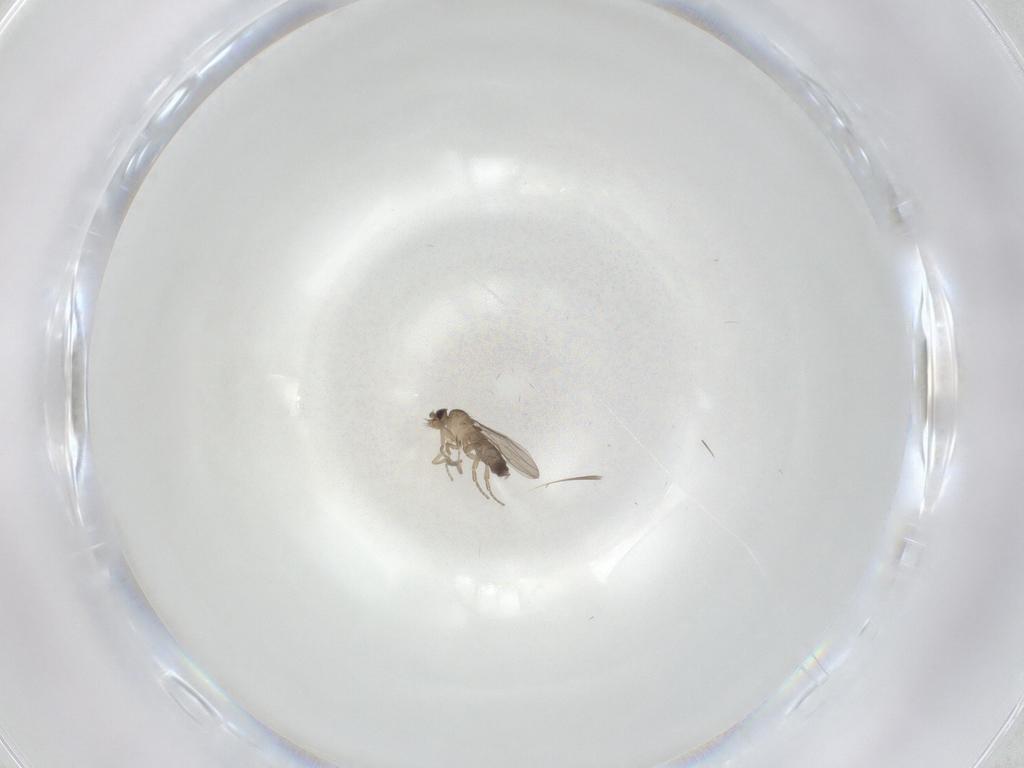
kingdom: Animalia
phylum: Arthropoda
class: Insecta
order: Diptera
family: Phoridae
